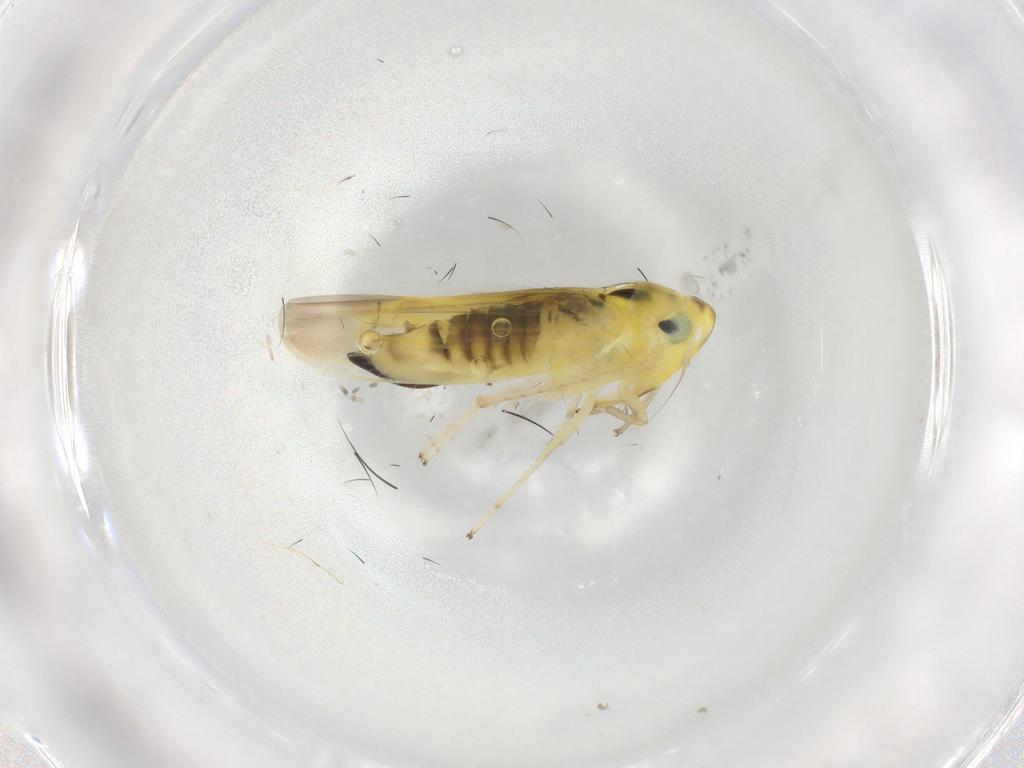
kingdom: Animalia
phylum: Arthropoda
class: Insecta
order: Hemiptera
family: Cicadellidae
